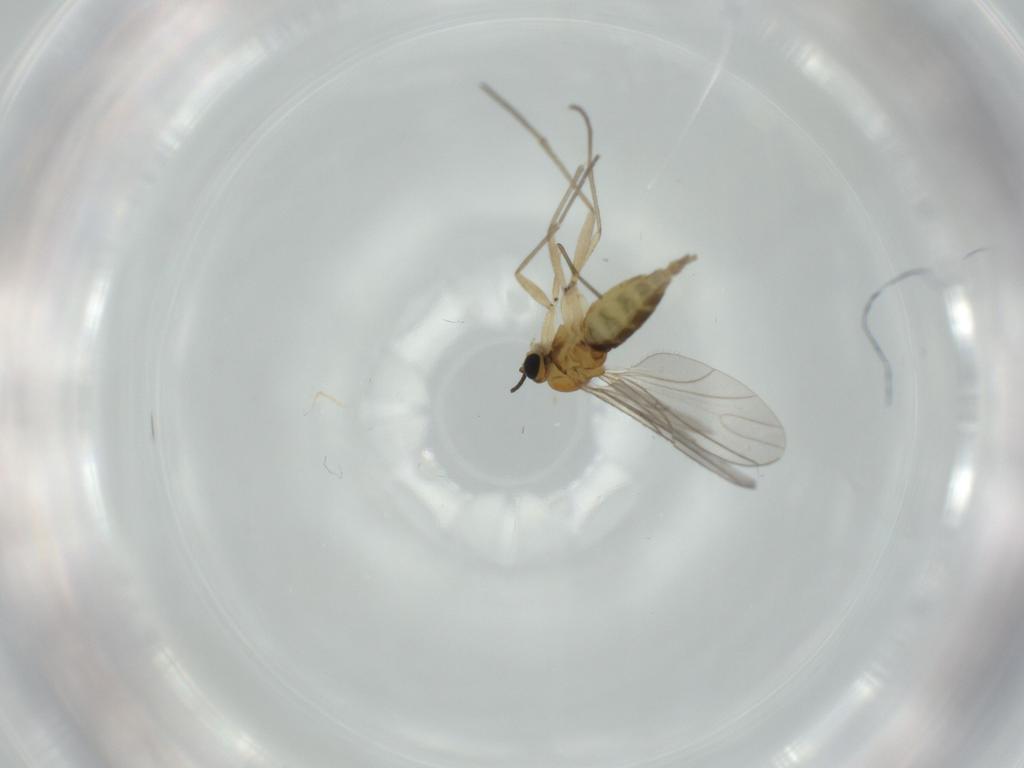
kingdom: Animalia
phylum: Arthropoda
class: Insecta
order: Diptera
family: Sciaridae
